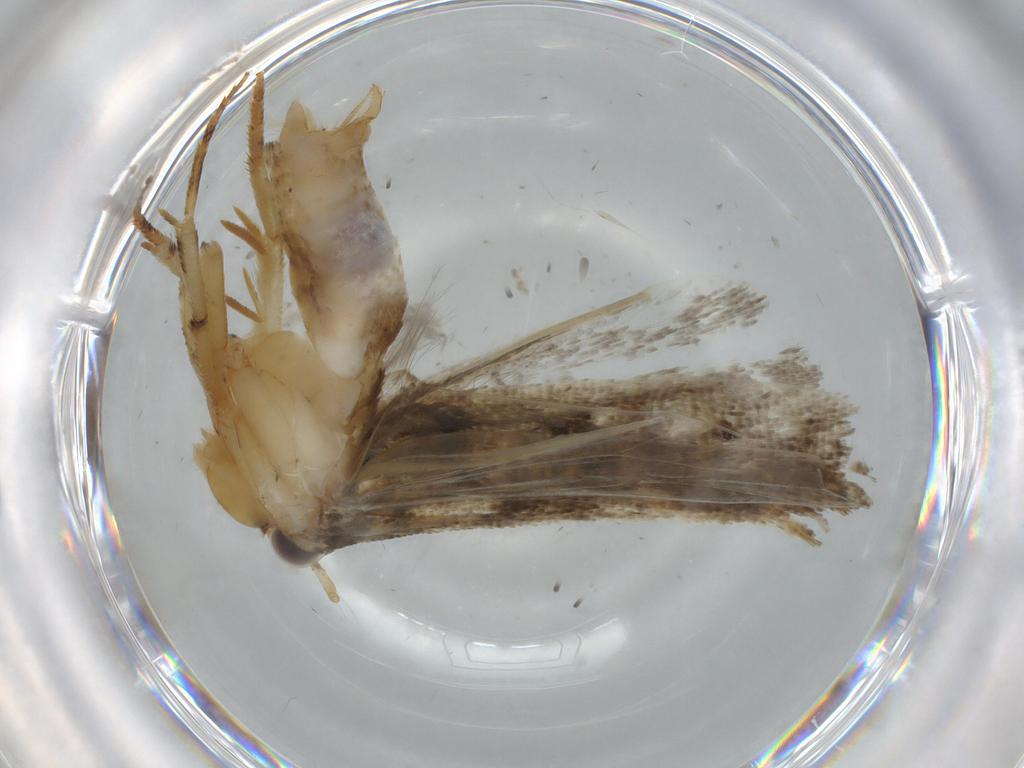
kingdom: Animalia
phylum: Arthropoda
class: Insecta
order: Lepidoptera
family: Gelechiidae
